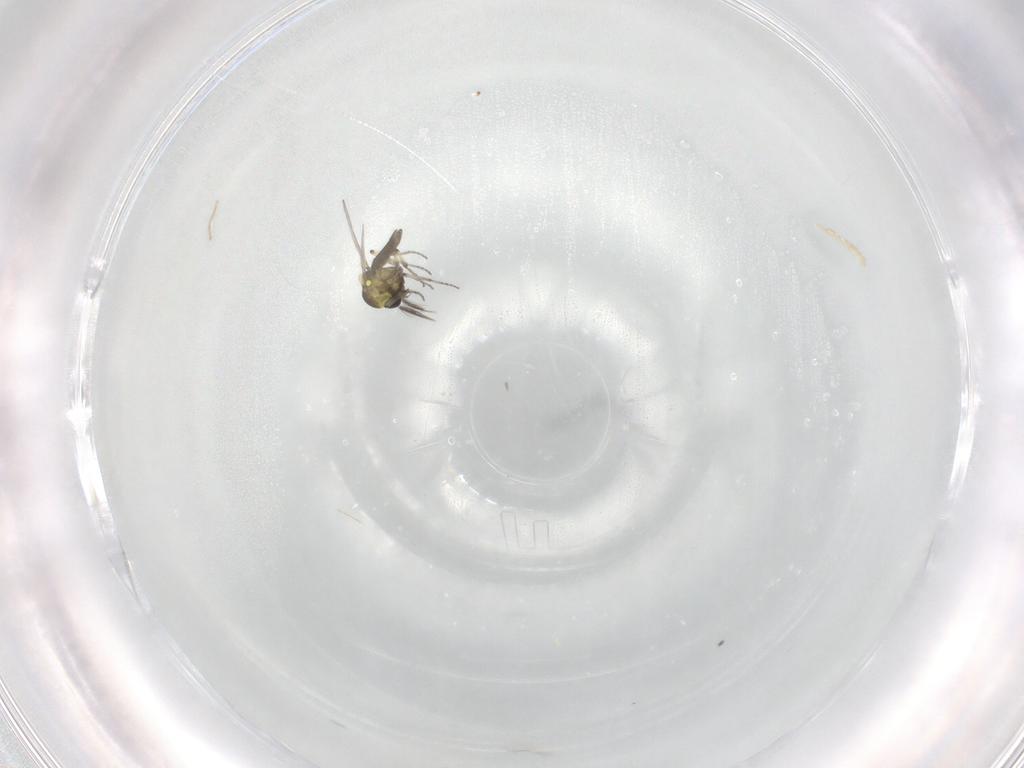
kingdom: Animalia
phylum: Arthropoda
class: Insecta
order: Diptera
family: Ceratopogonidae
